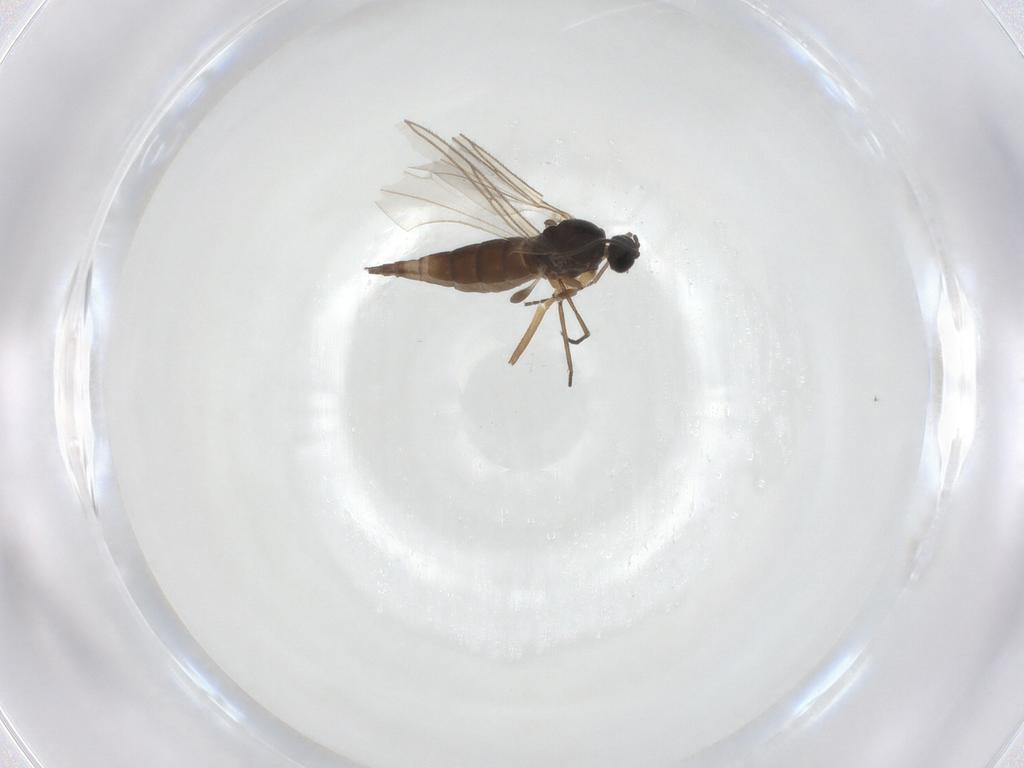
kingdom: Animalia
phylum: Arthropoda
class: Insecta
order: Diptera
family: Sciaridae
